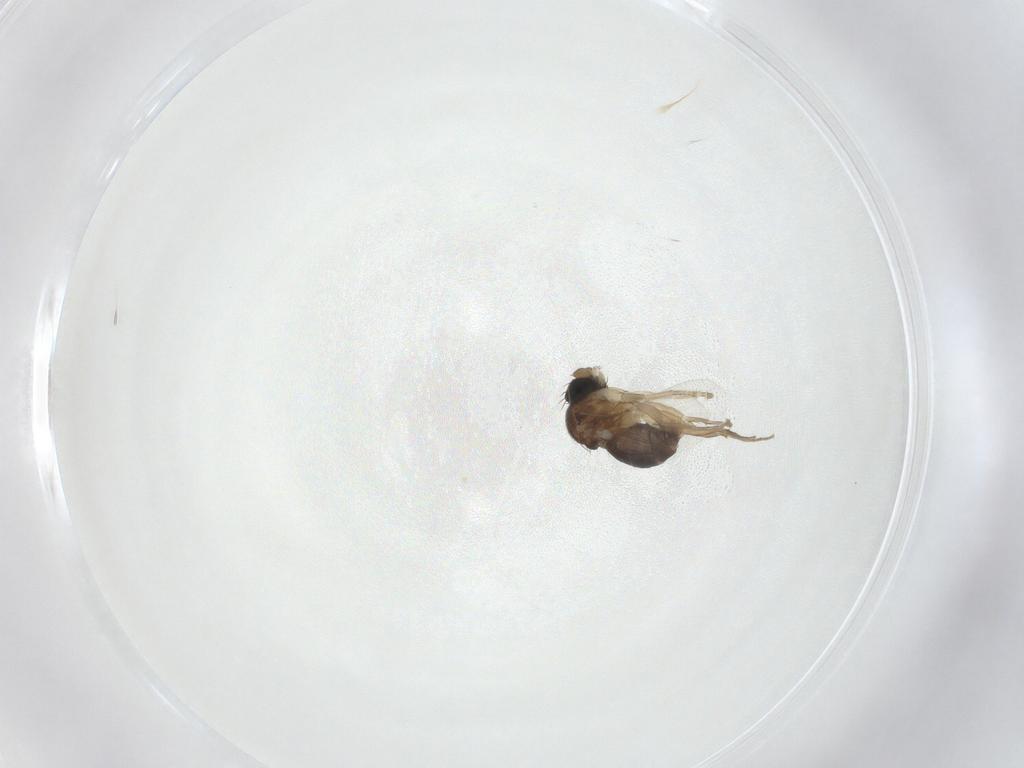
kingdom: Animalia
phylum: Arthropoda
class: Insecta
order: Diptera
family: Phoridae
